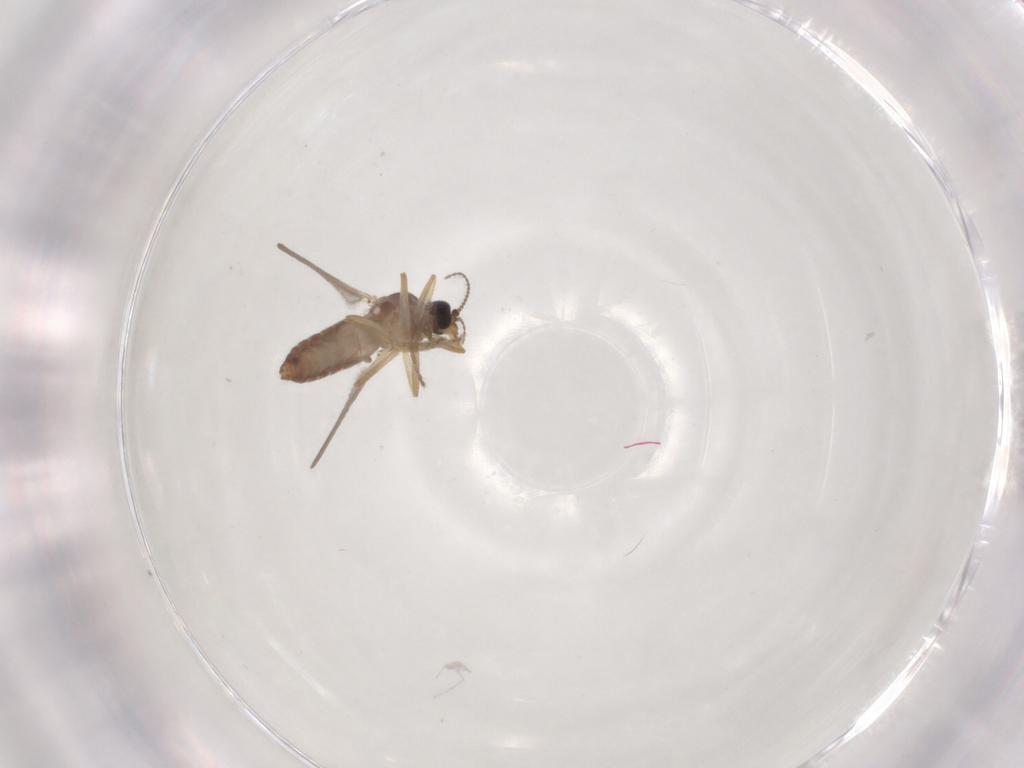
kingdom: Animalia
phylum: Arthropoda
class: Insecta
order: Diptera
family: Ceratopogonidae
